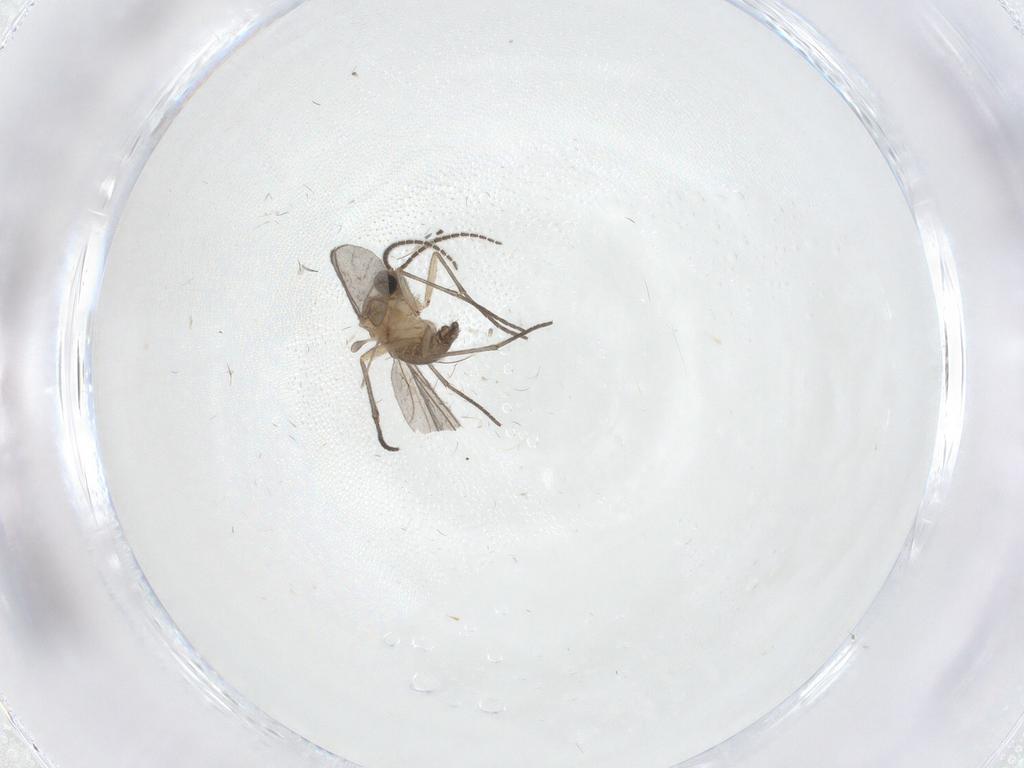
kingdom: Animalia
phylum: Arthropoda
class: Insecta
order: Diptera
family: Sciaridae
